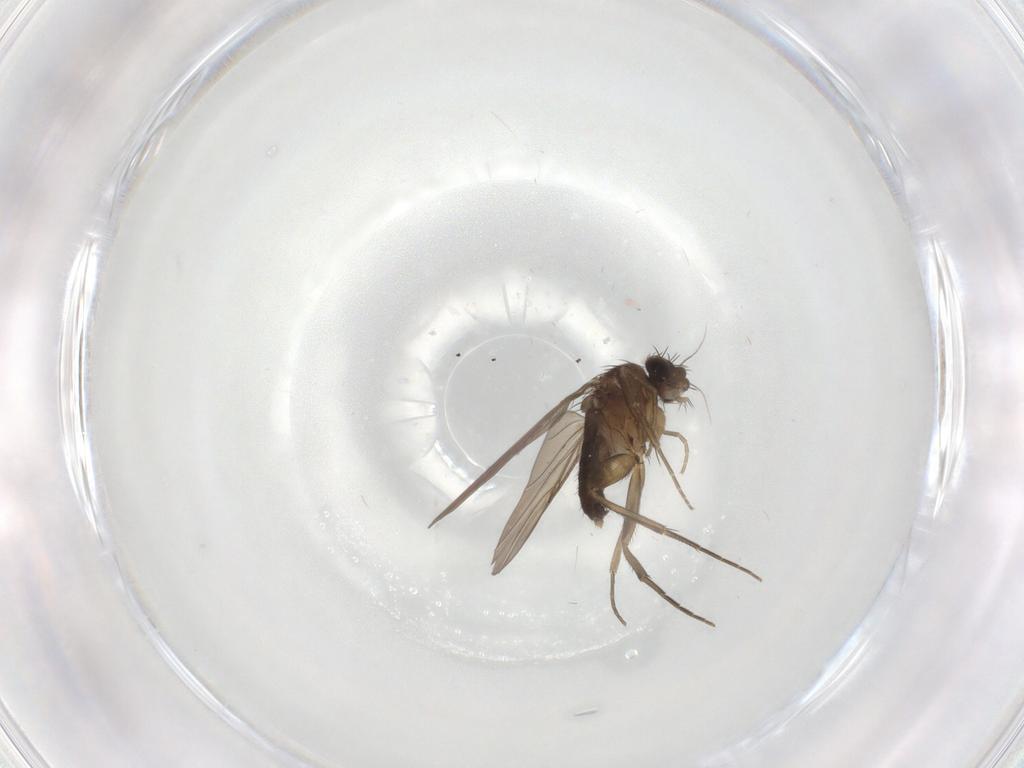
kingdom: Animalia
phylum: Arthropoda
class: Insecta
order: Diptera
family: Phoridae
